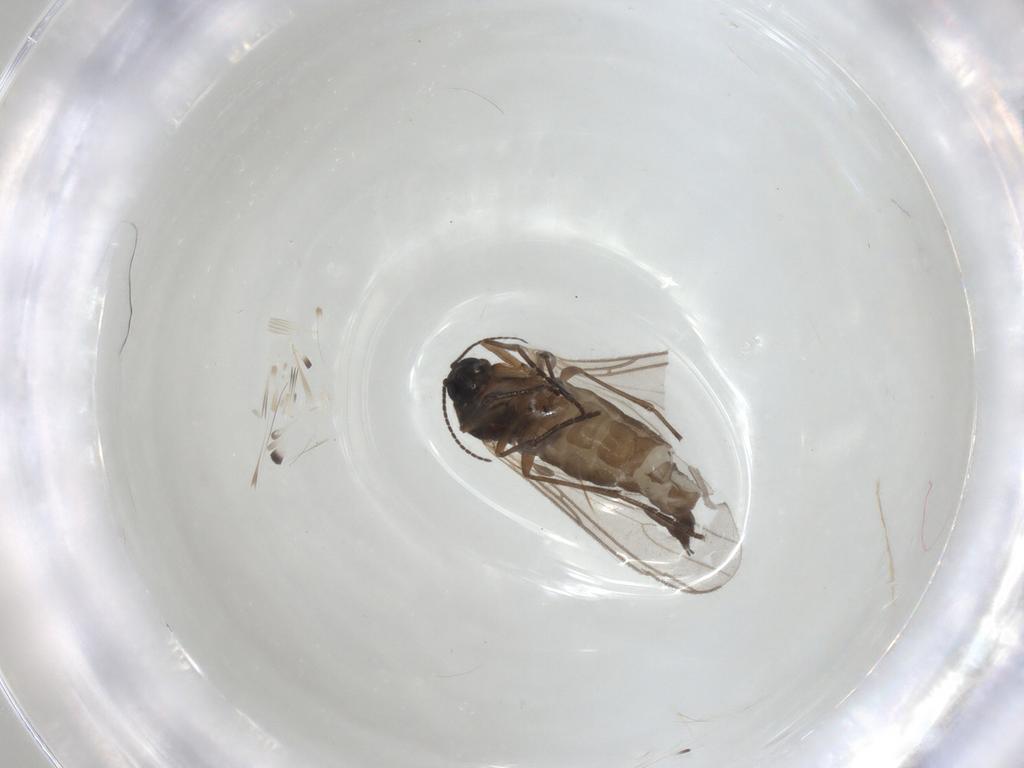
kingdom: Animalia
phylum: Arthropoda
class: Insecta
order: Diptera
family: Sciaridae
